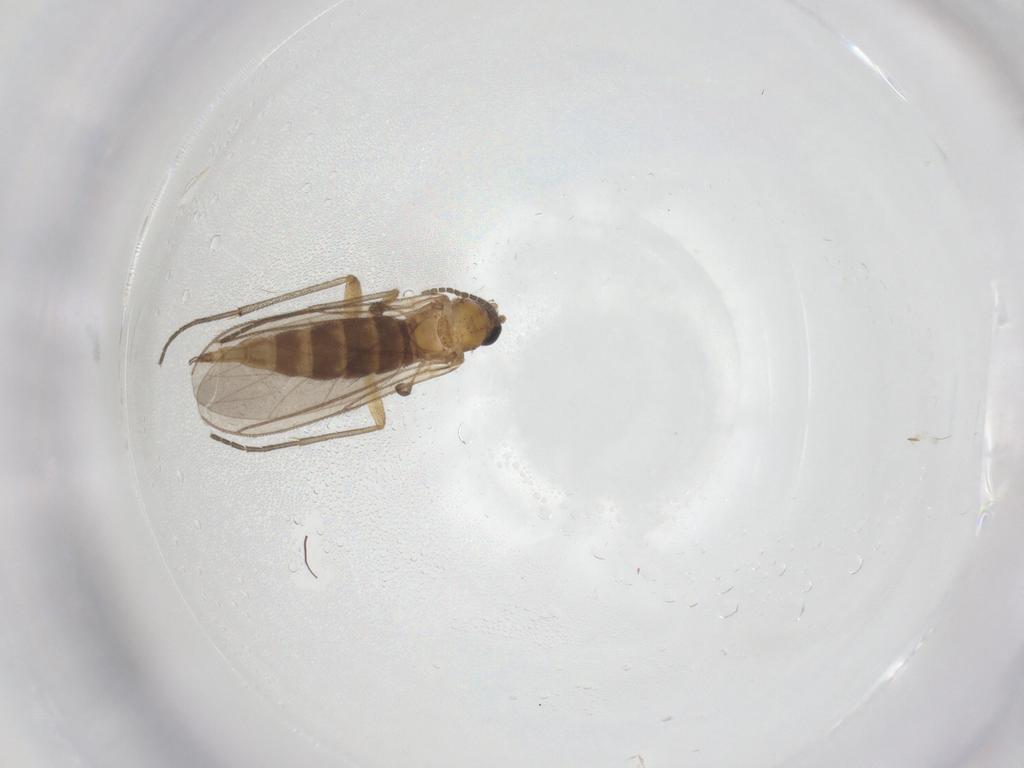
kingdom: Animalia
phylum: Arthropoda
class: Insecta
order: Diptera
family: Sciaridae
